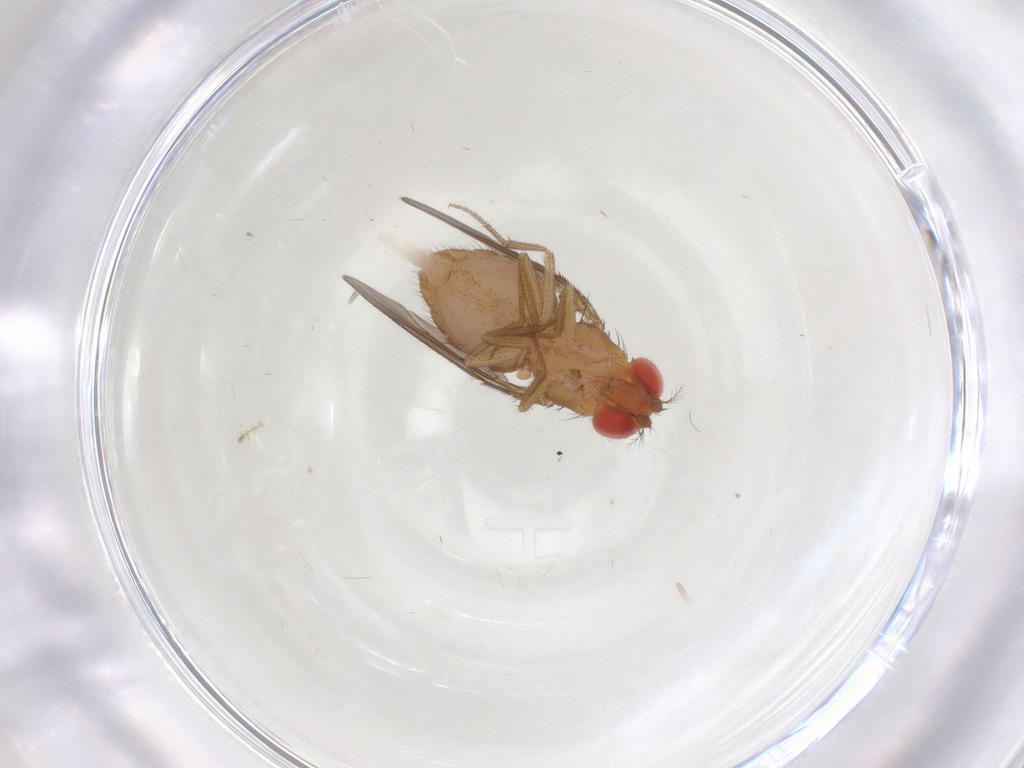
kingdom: Animalia
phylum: Arthropoda
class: Insecta
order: Diptera
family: Drosophilidae
